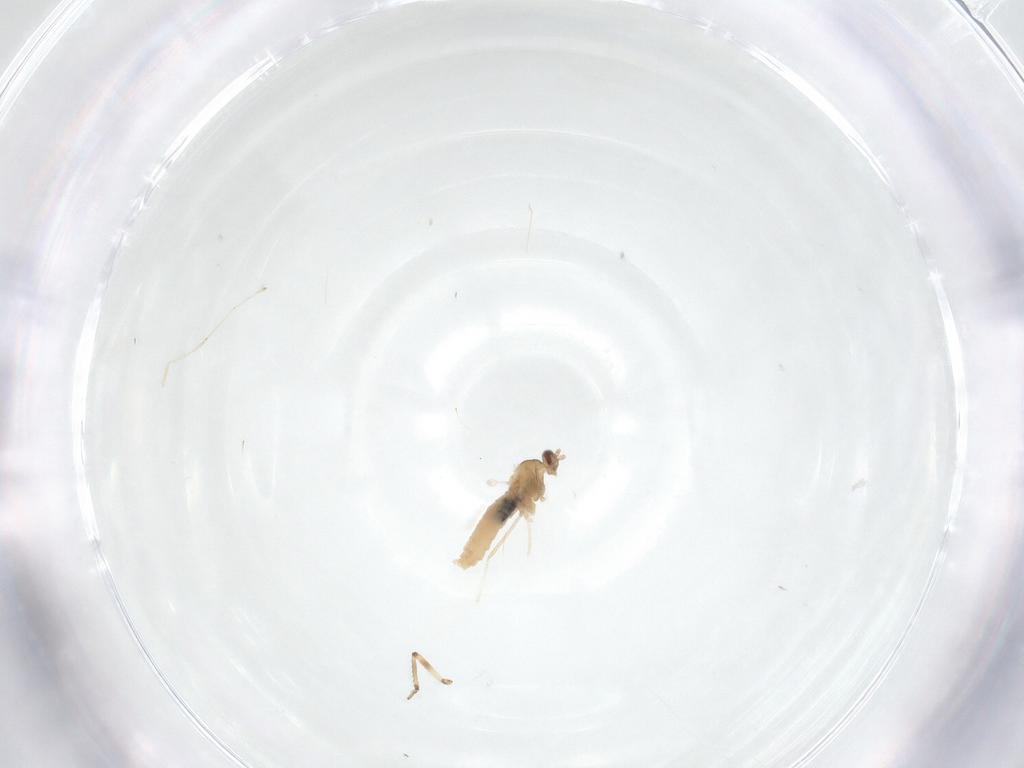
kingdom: Animalia
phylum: Arthropoda
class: Insecta
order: Diptera
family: Cecidomyiidae
